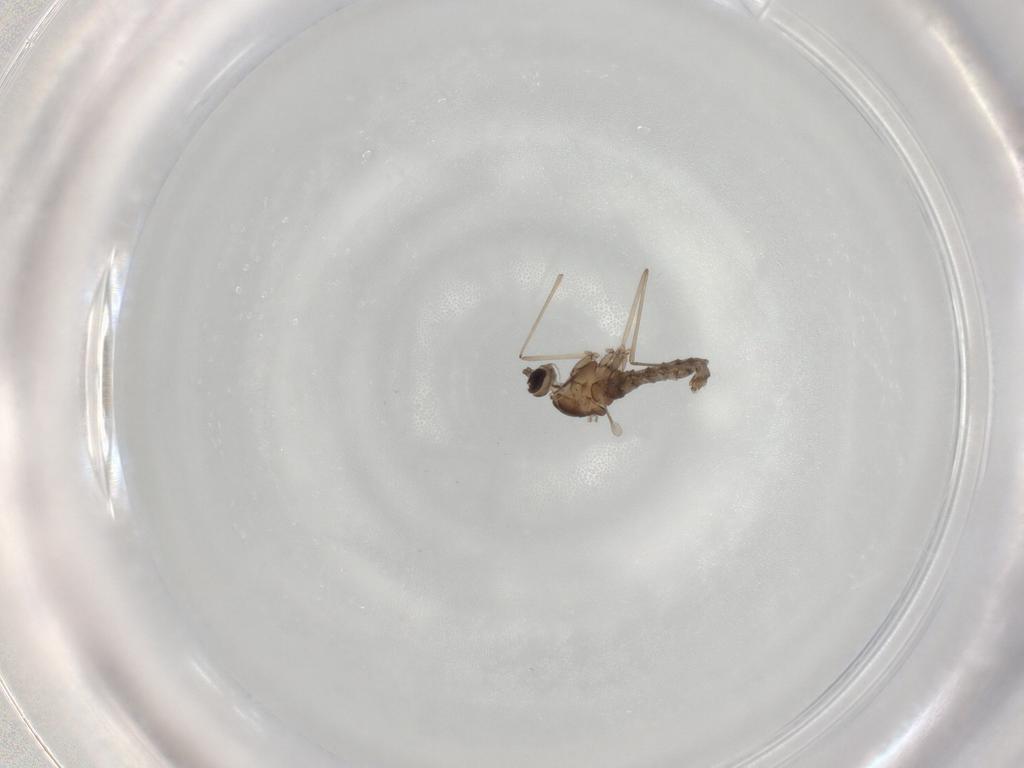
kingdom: Animalia
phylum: Arthropoda
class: Insecta
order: Diptera
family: Cecidomyiidae
